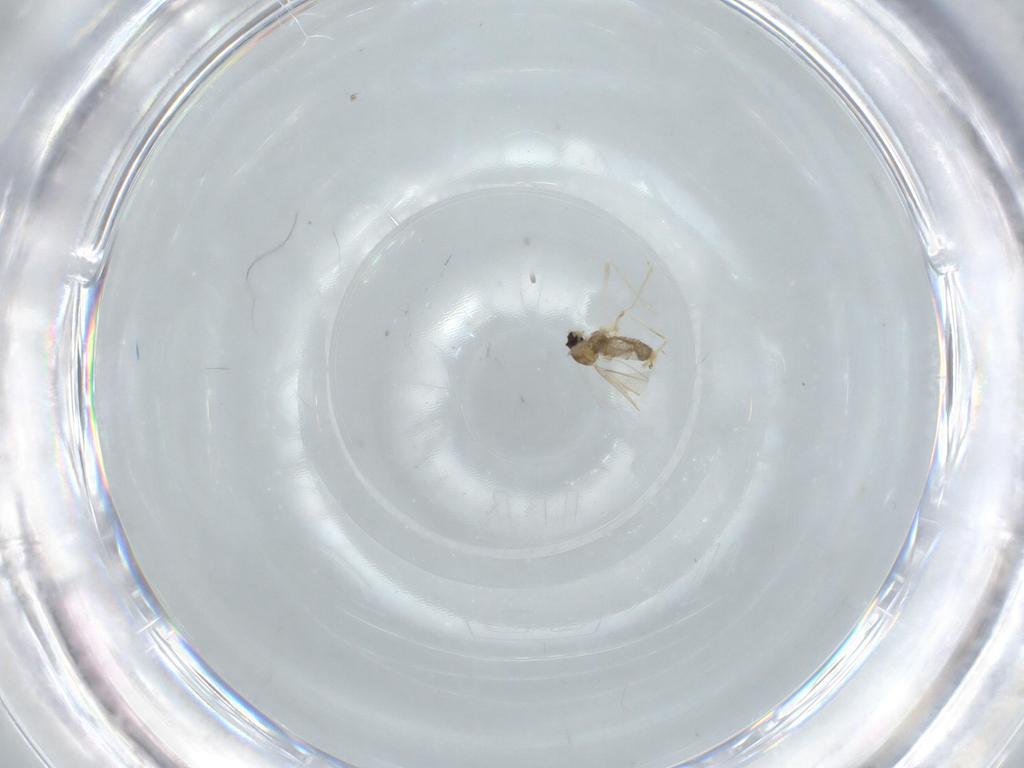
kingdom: Animalia
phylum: Arthropoda
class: Insecta
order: Diptera
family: Cecidomyiidae
